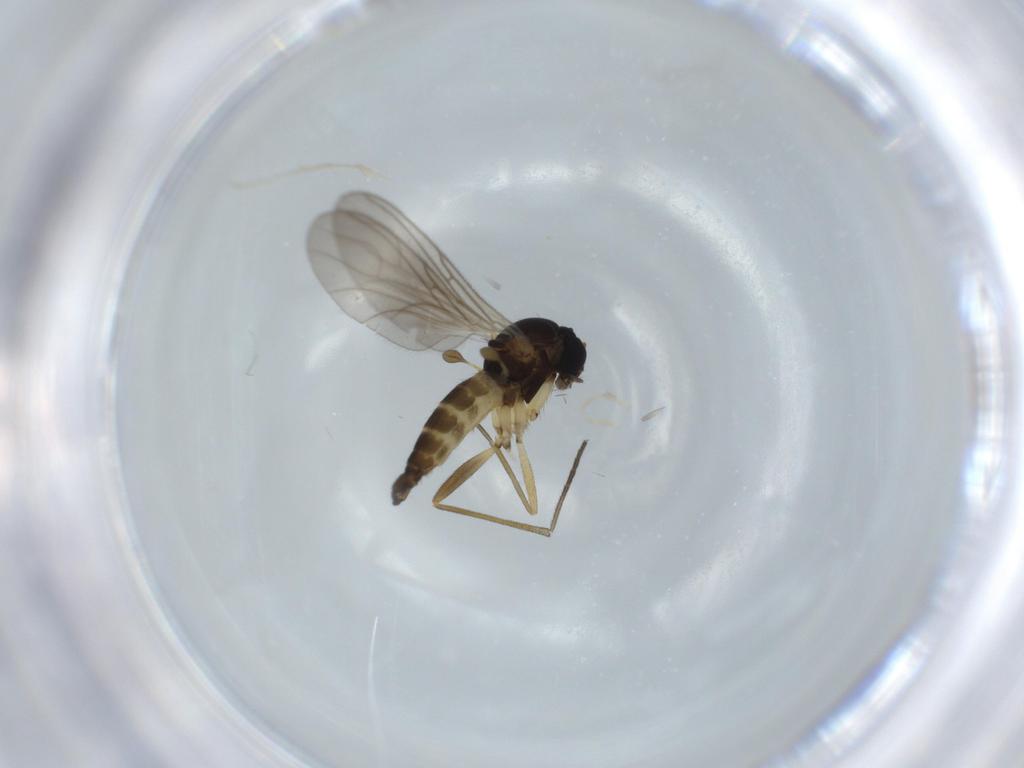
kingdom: Animalia
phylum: Arthropoda
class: Insecta
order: Diptera
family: Sciaridae
